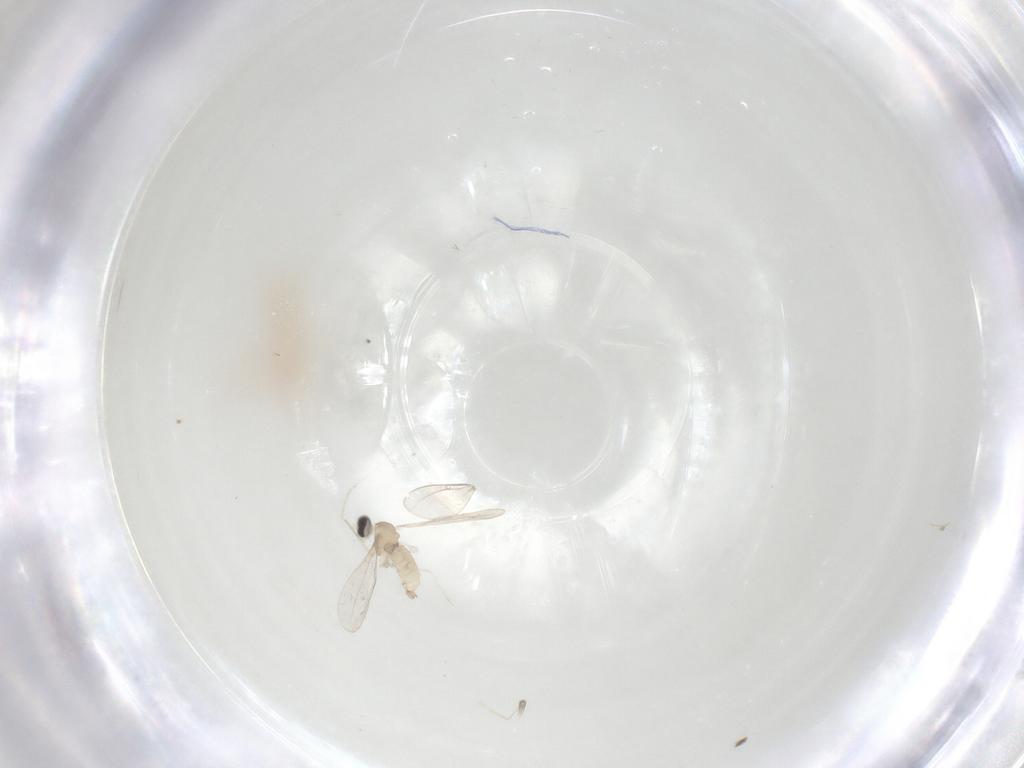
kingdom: Animalia
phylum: Arthropoda
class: Insecta
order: Diptera
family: Cecidomyiidae
